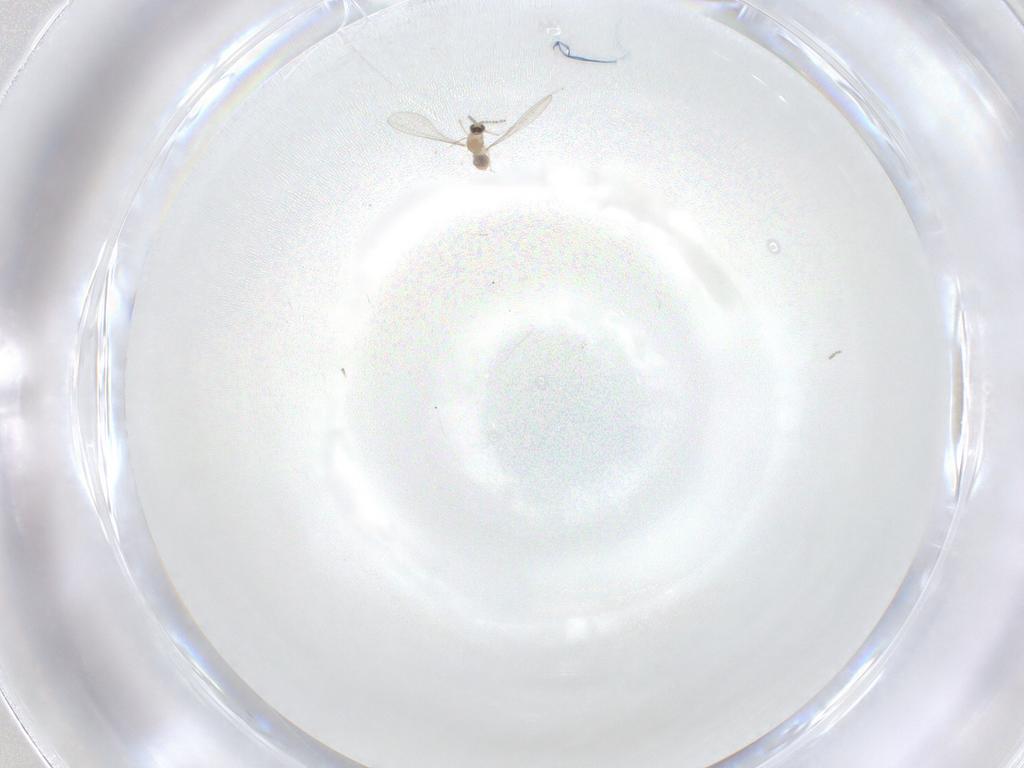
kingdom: Animalia
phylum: Arthropoda
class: Insecta
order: Diptera
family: Cecidomyiidae
